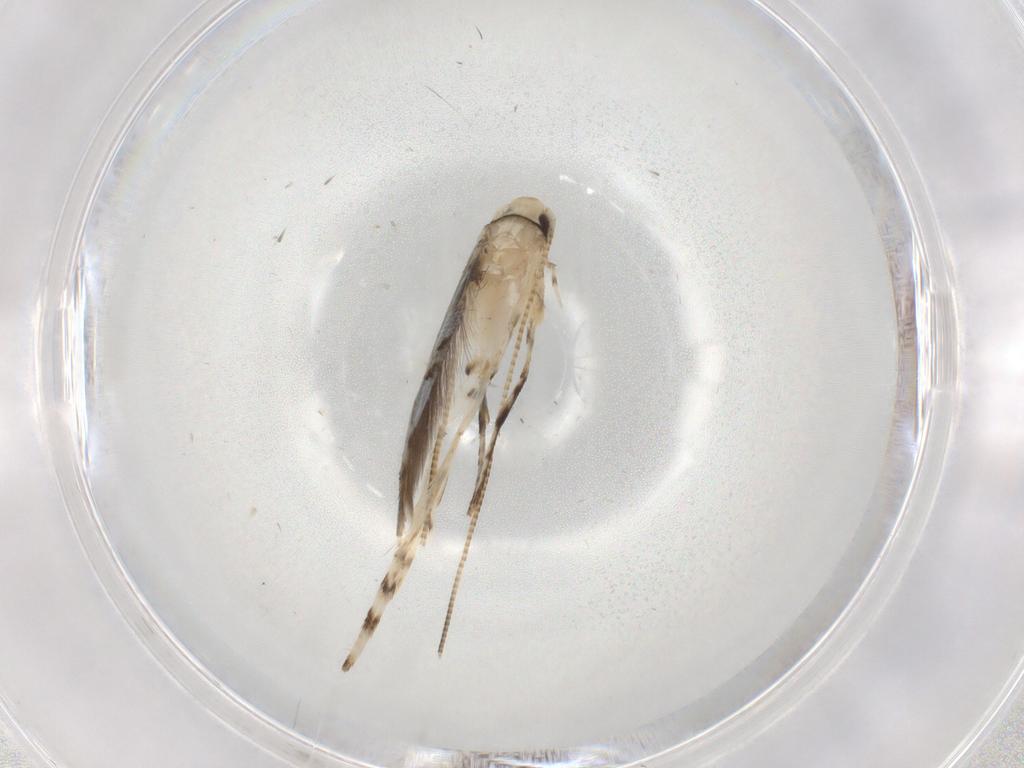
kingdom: Animalia
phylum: Arthropoda
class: Insecta
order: Lepidoptera
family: Gracillariidae
